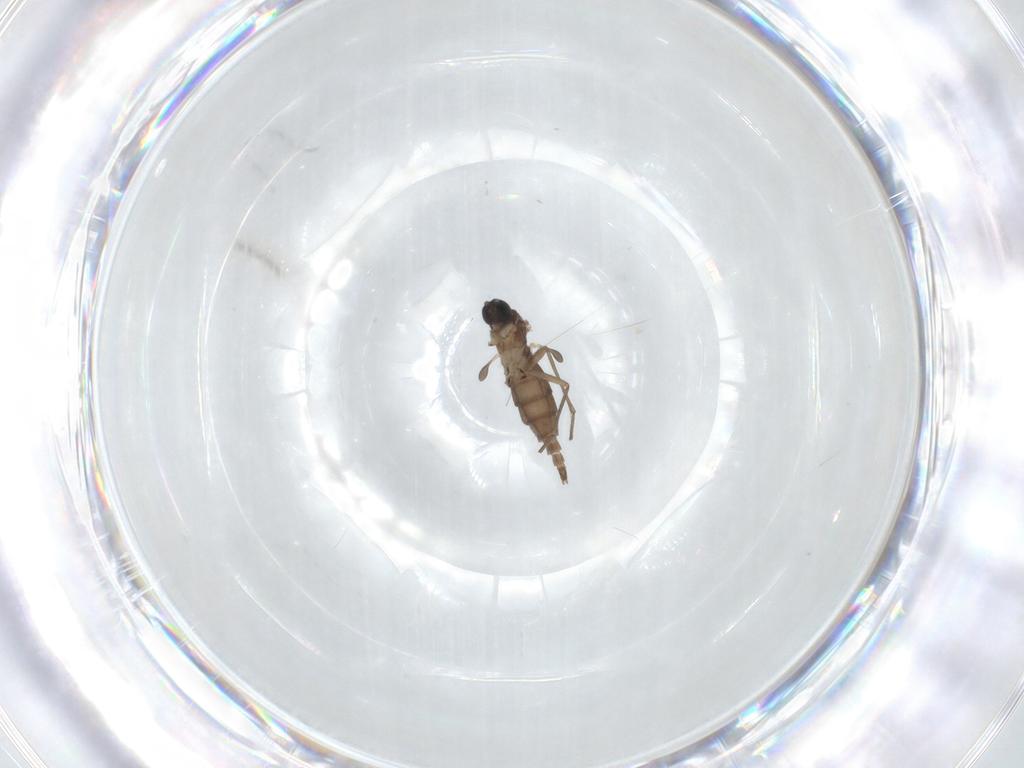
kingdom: Animalia
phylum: Arthropoda
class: Insecta
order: Diptera
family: Sciaridae
